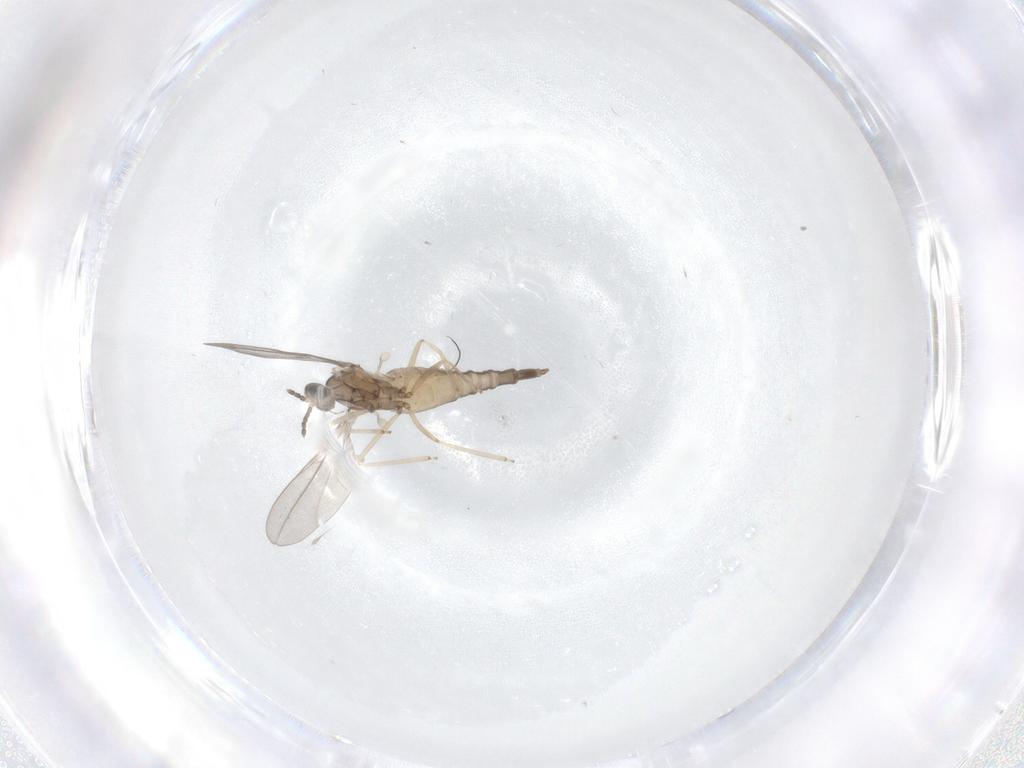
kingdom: Animalia
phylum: Arthropoda
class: Insecta
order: Diptera
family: Cecidomyiidae
